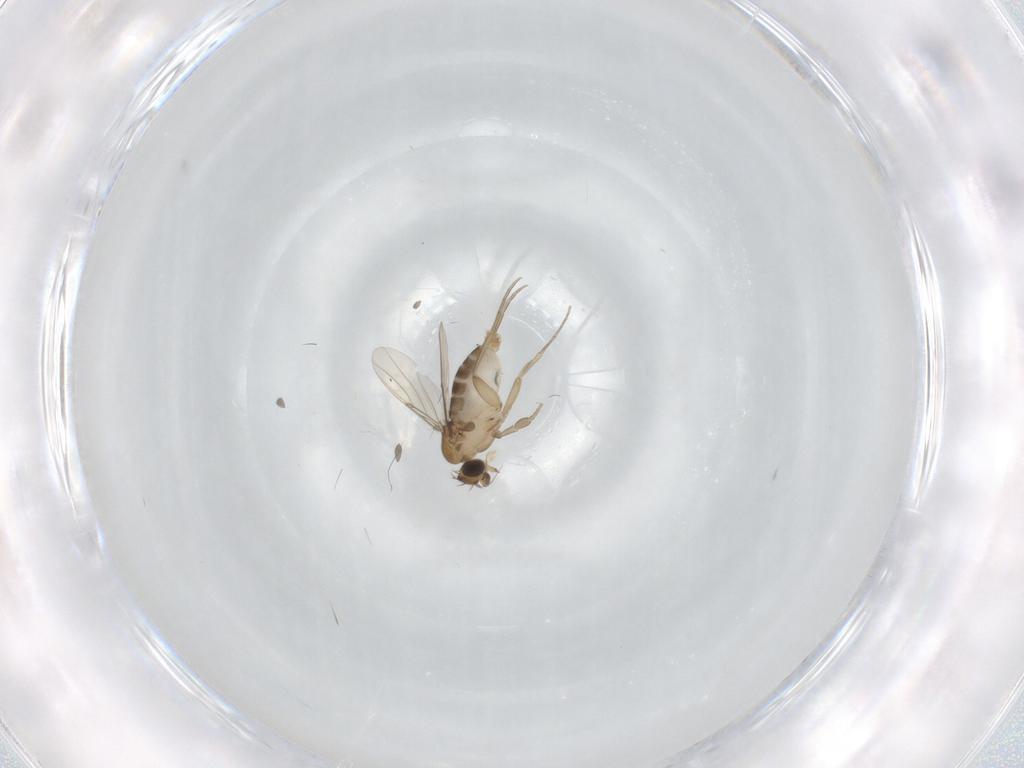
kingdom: Animalia
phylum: Arthropoda
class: Insecta
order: Diptera
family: Phoridae
